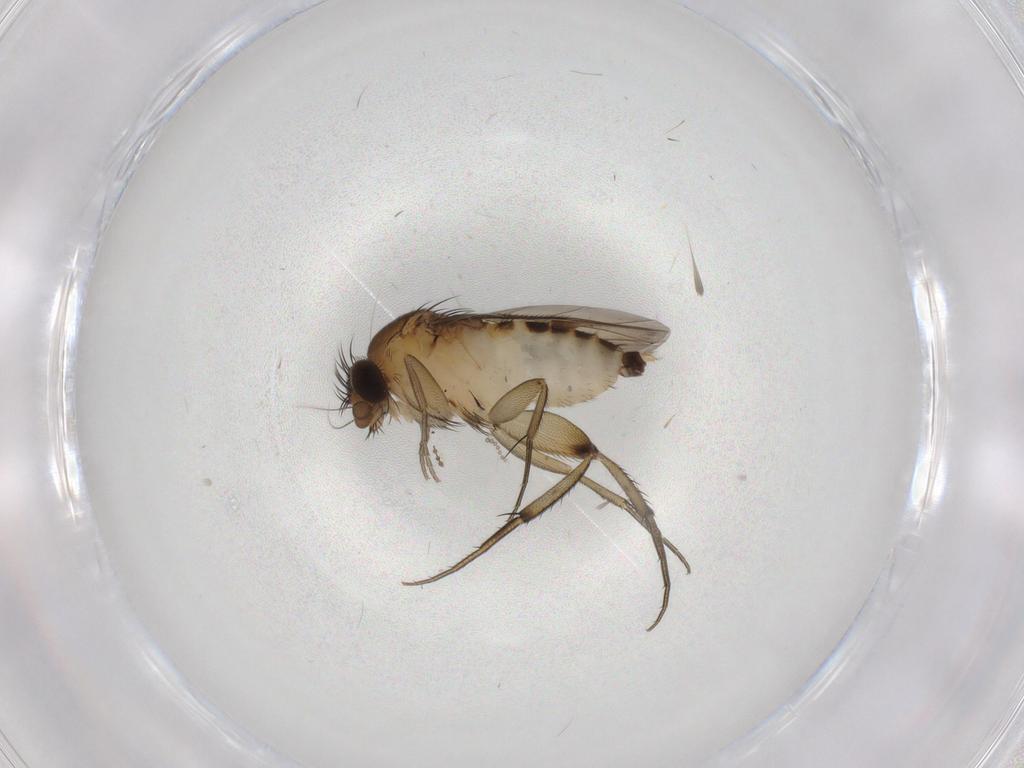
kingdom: Animalia
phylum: Arthropoda
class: Insecta
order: Diptera
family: Phoridae
